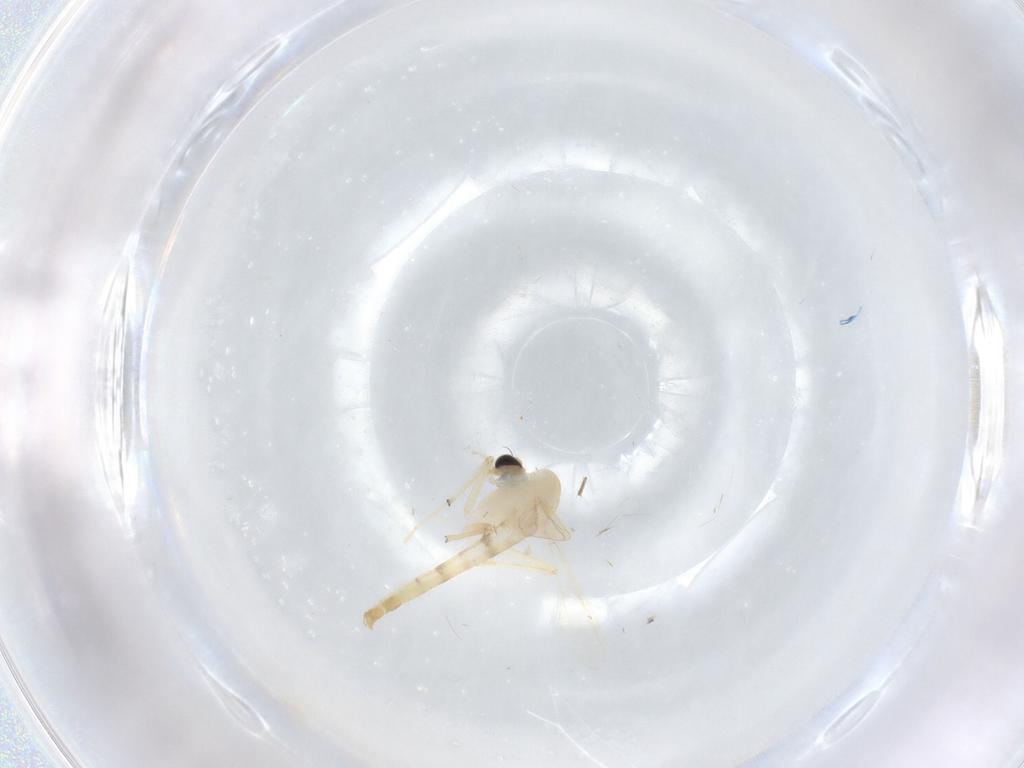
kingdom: Animalia
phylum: Arthropoda
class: Insecta
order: Diptera
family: Chironomidae
